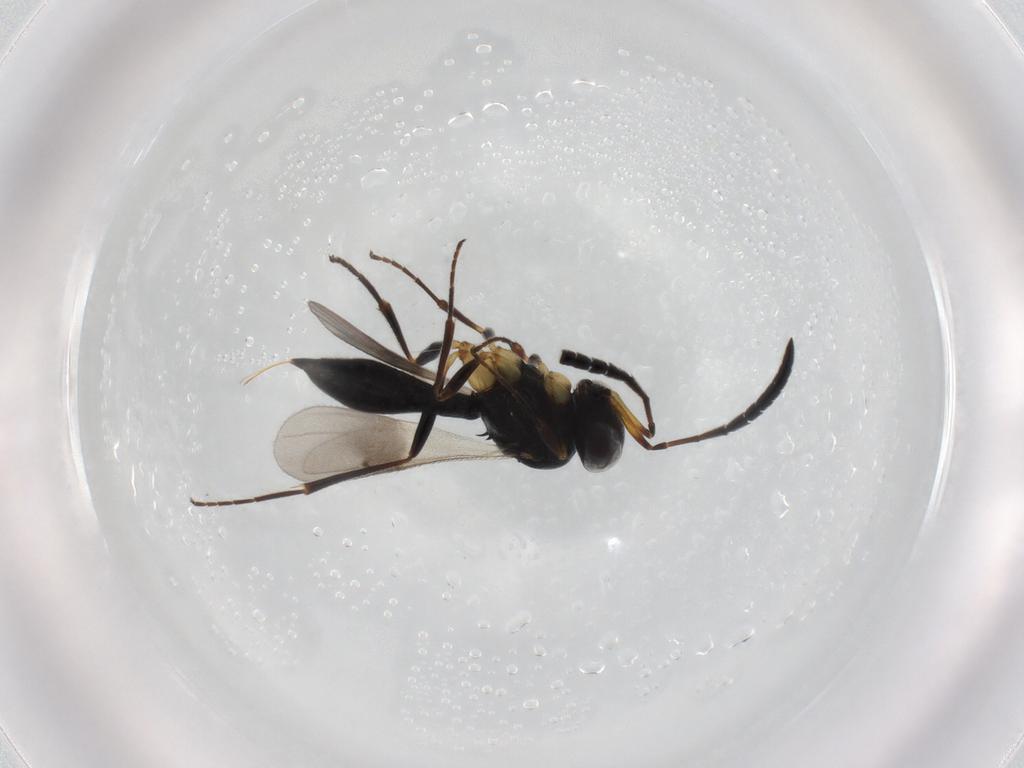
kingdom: Animalia
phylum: Arthropoda
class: Insecta
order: Hymenoptera
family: Scelionidae
